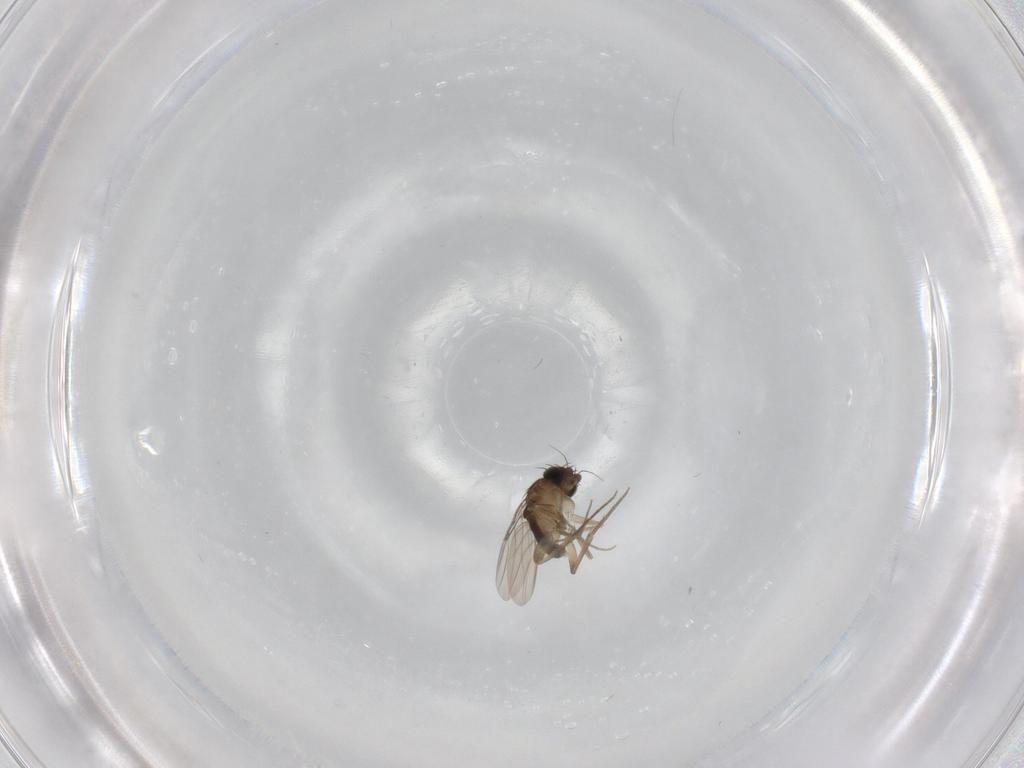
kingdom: Animalia
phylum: Arthropoda
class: Insecta
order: Diptera
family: Phoridae
